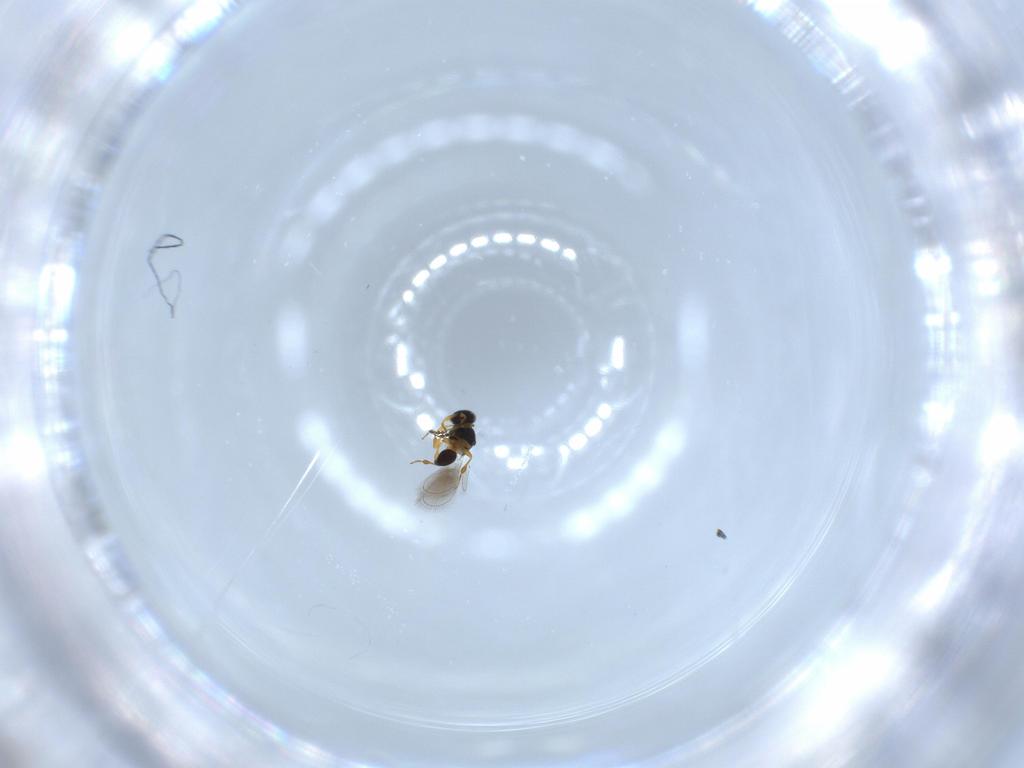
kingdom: Animalia
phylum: Arthropoda
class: Insecta
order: Hymenoptera
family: Platygastridae
